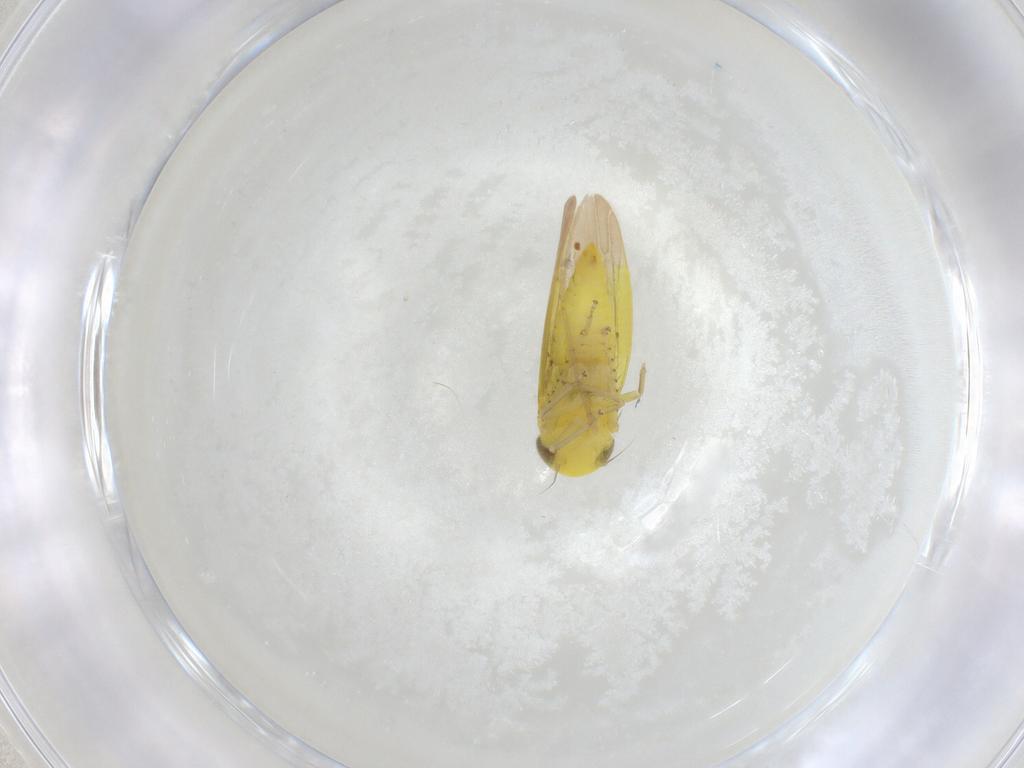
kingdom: Animalia
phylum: Arthropoda
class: Insecta
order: Hemiptera
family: Cicadellidae
